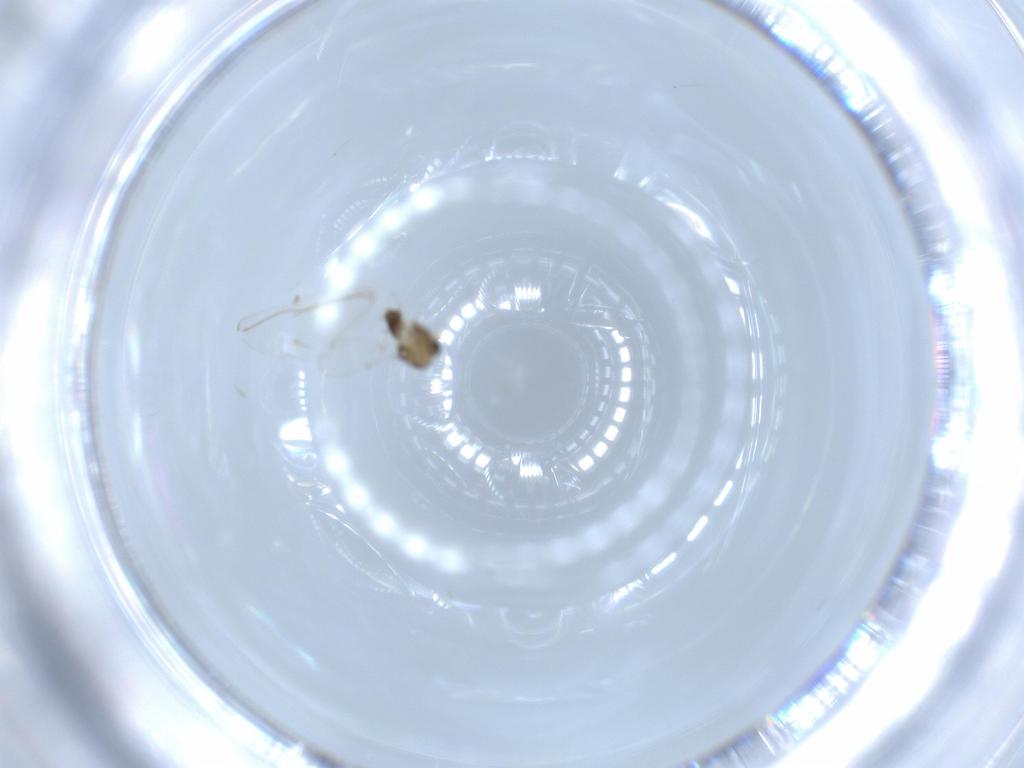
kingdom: Animalia
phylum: Arthropoda
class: Insecta
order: Diptera
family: Chironomidae
